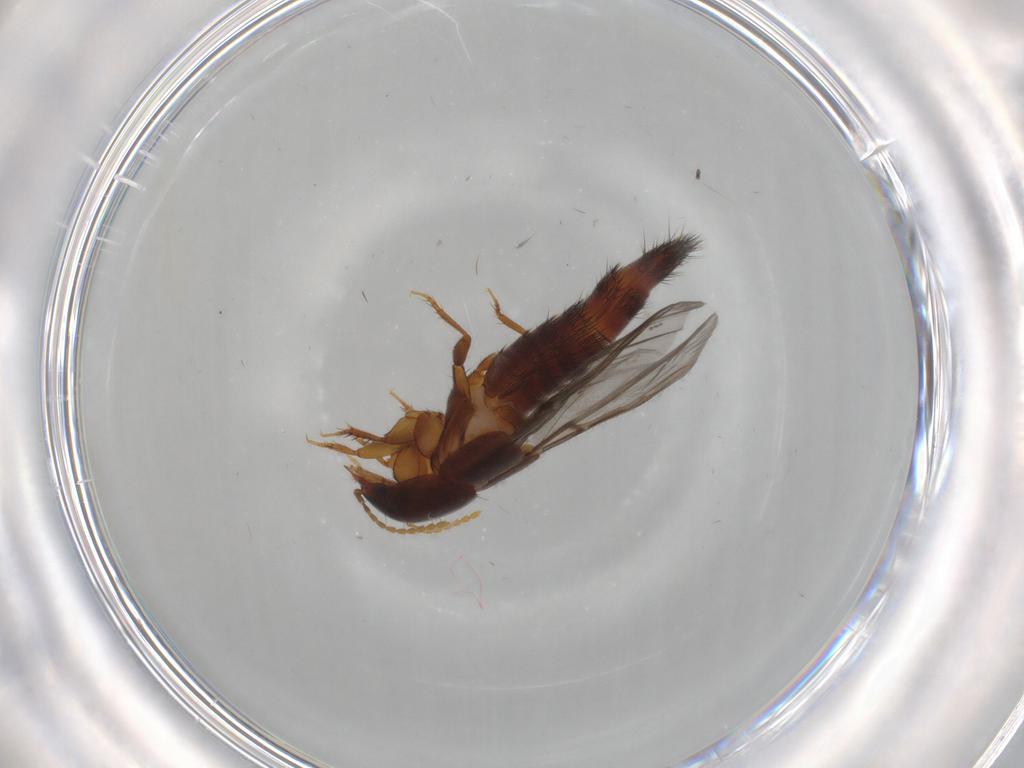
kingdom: Animalia
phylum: Arthropoda
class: Insecta
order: Coleoptera
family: Staphylinidae
